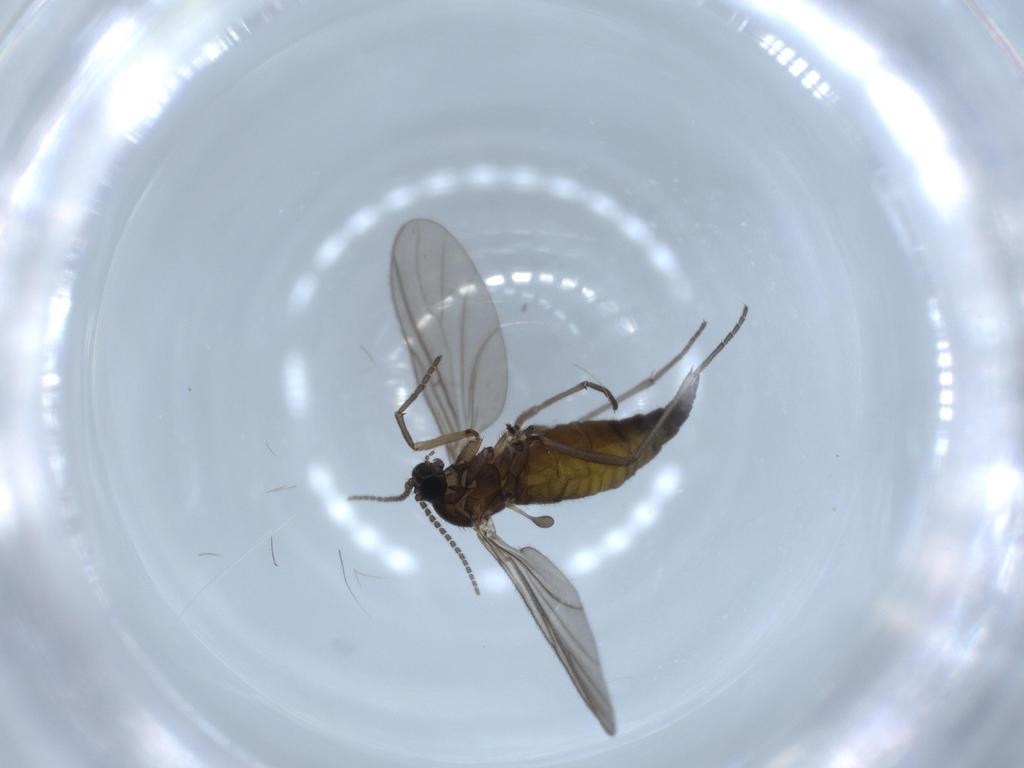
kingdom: Animalia
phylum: Arthropoda
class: Insecta
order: Diptera
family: Sciaridae
